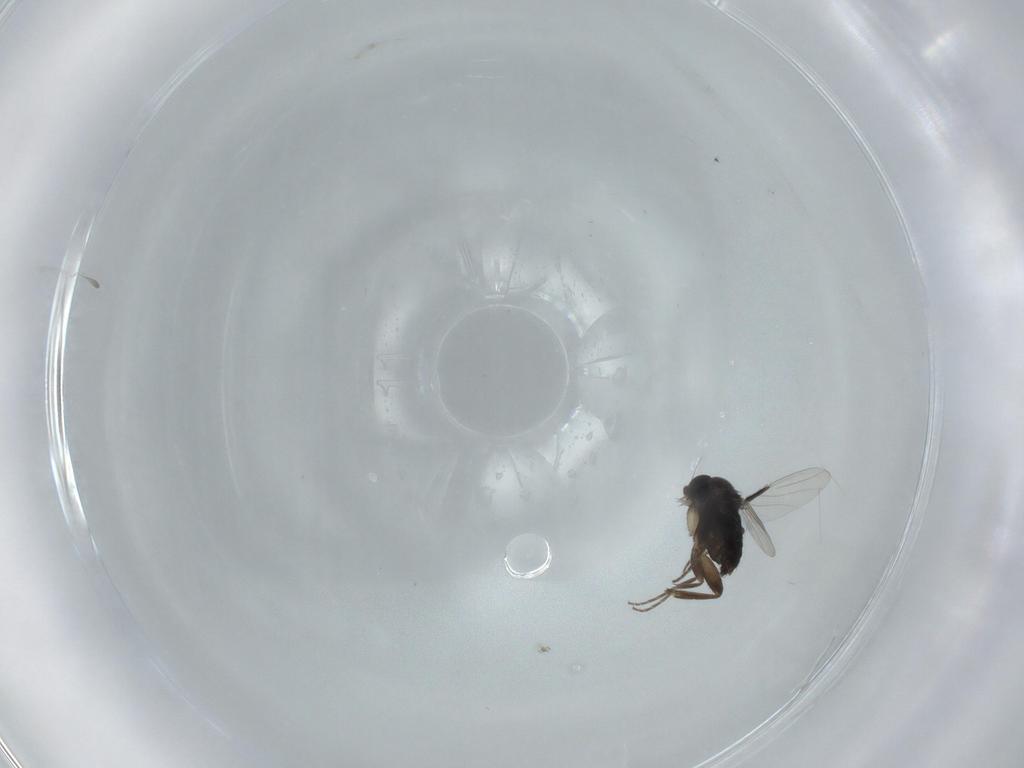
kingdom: Animalia
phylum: Arthropoda
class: Insecta
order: Diptera
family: Phoridae
